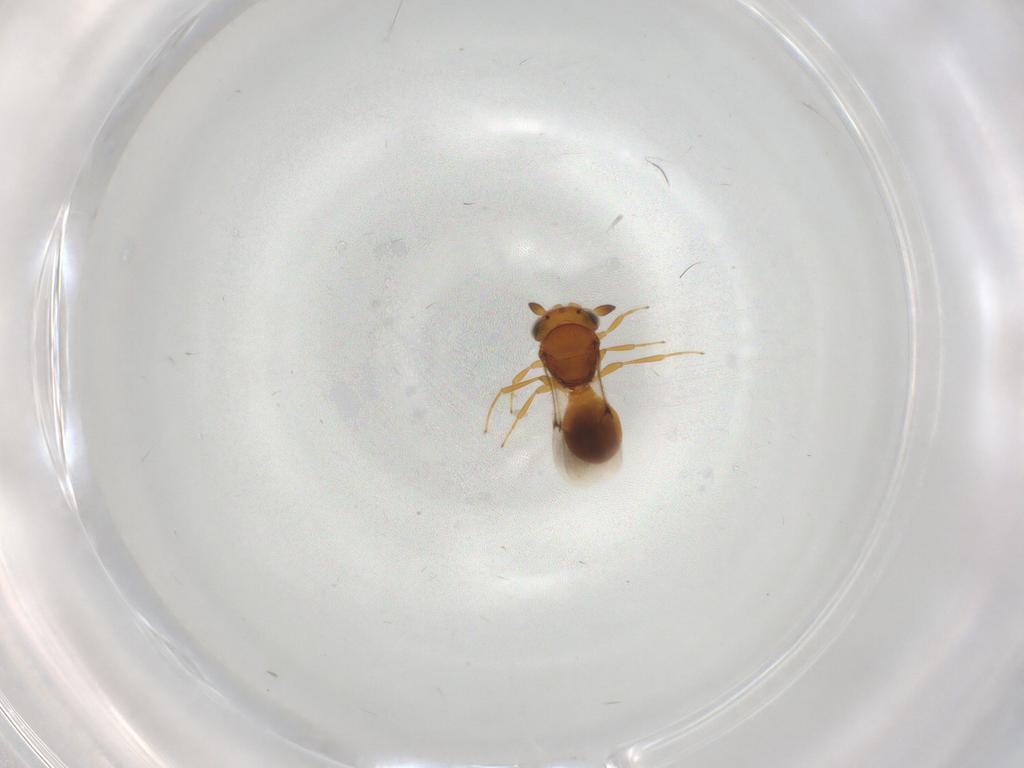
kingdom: Animalia
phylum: Arthropoda
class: Insecta
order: Hymenoptera
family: Scelionidae
